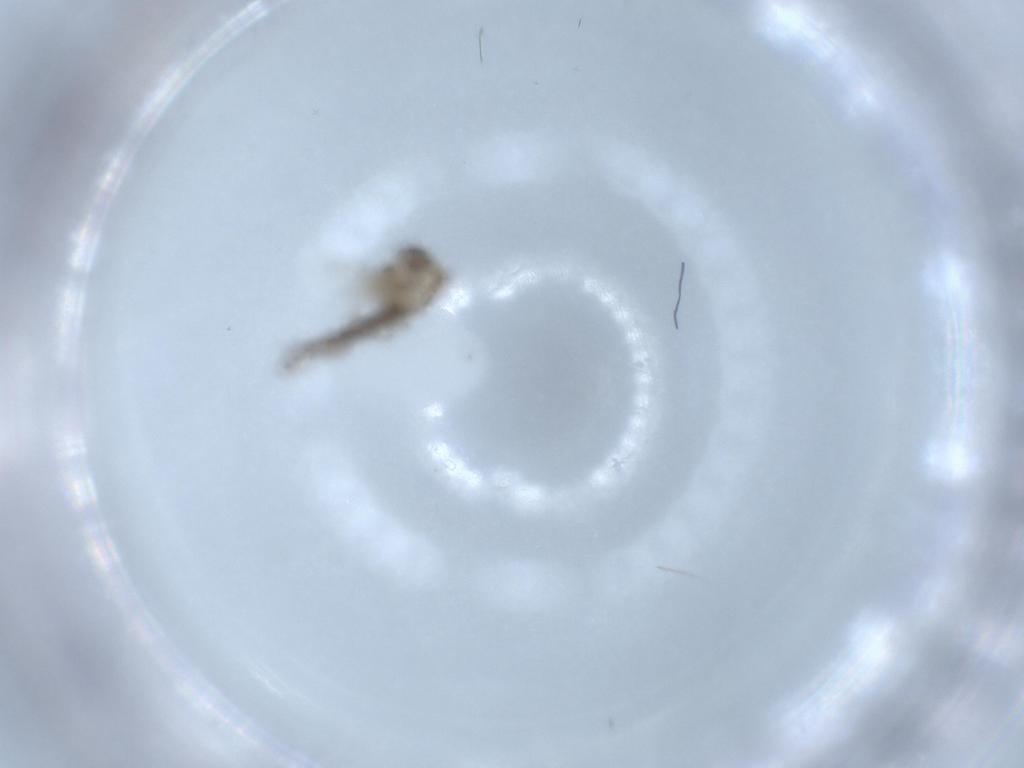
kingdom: Animalia
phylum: Arthropoda
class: Insecta
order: Diptera
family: Chironomidae
